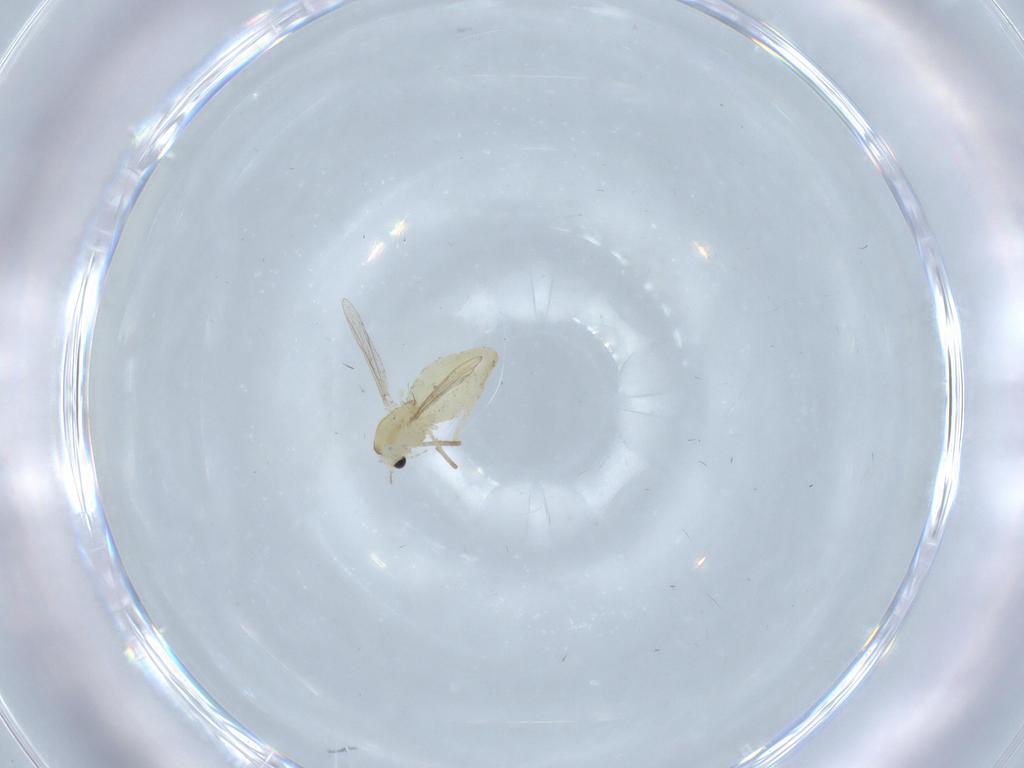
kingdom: Animalia
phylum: Arthropoda
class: Insecta
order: Diptera
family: Chironomidae
